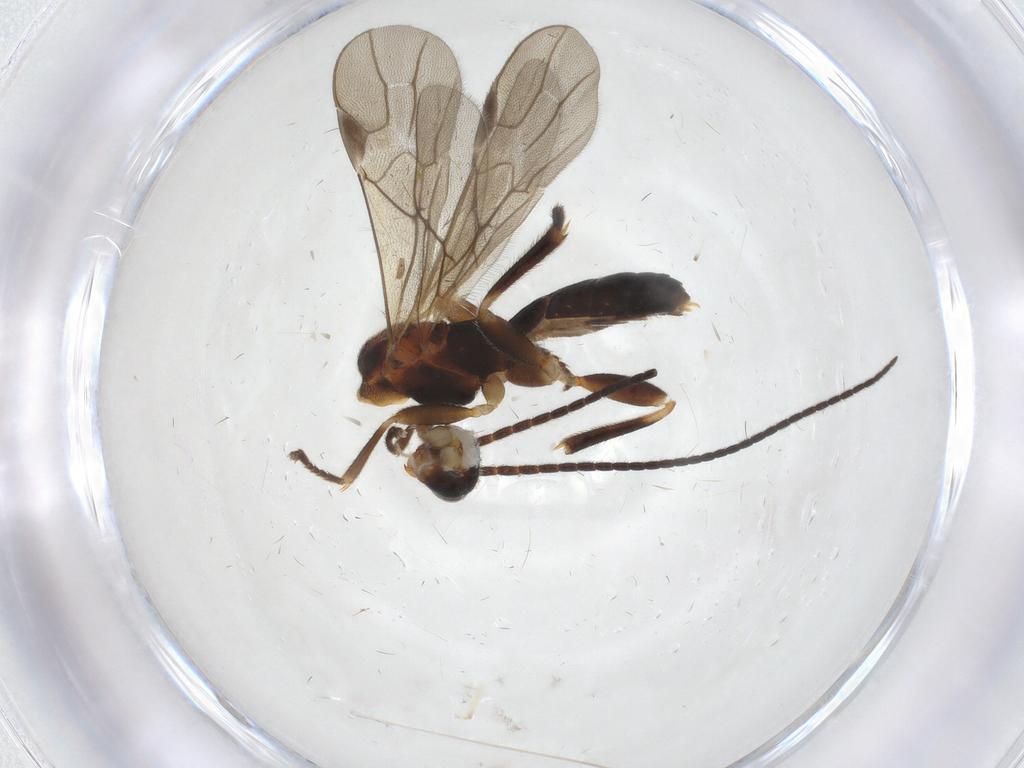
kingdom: Animalia
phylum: Arthropoda
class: Insecta
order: Hymenoptera
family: Braconidae
